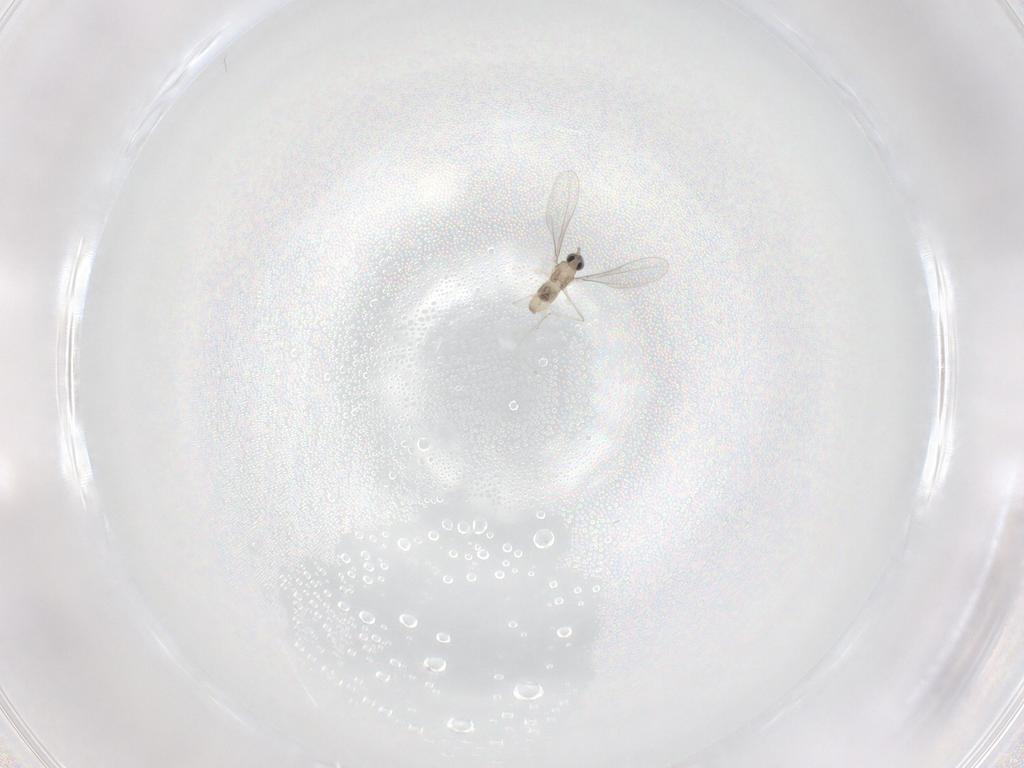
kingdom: Animalia
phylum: Arthropoda
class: Insecta
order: Diptera
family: Cecidomyiidae
